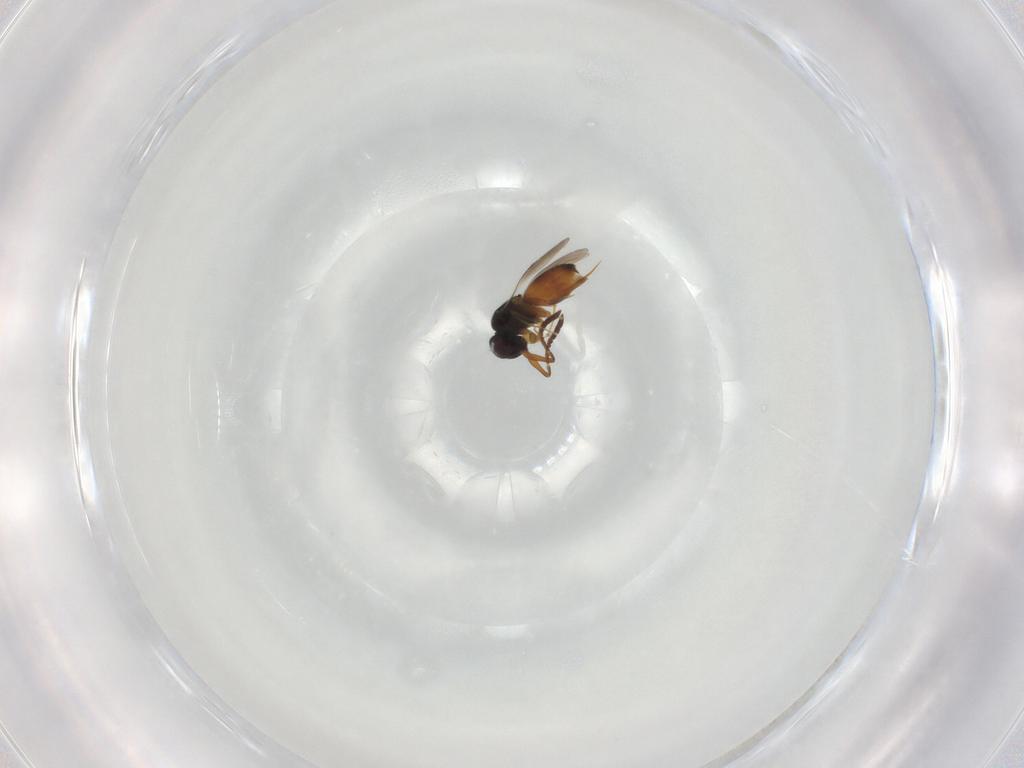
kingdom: Animalia
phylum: Arthropoda
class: Insecta
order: Hymenoptera
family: Ceraphronidae
